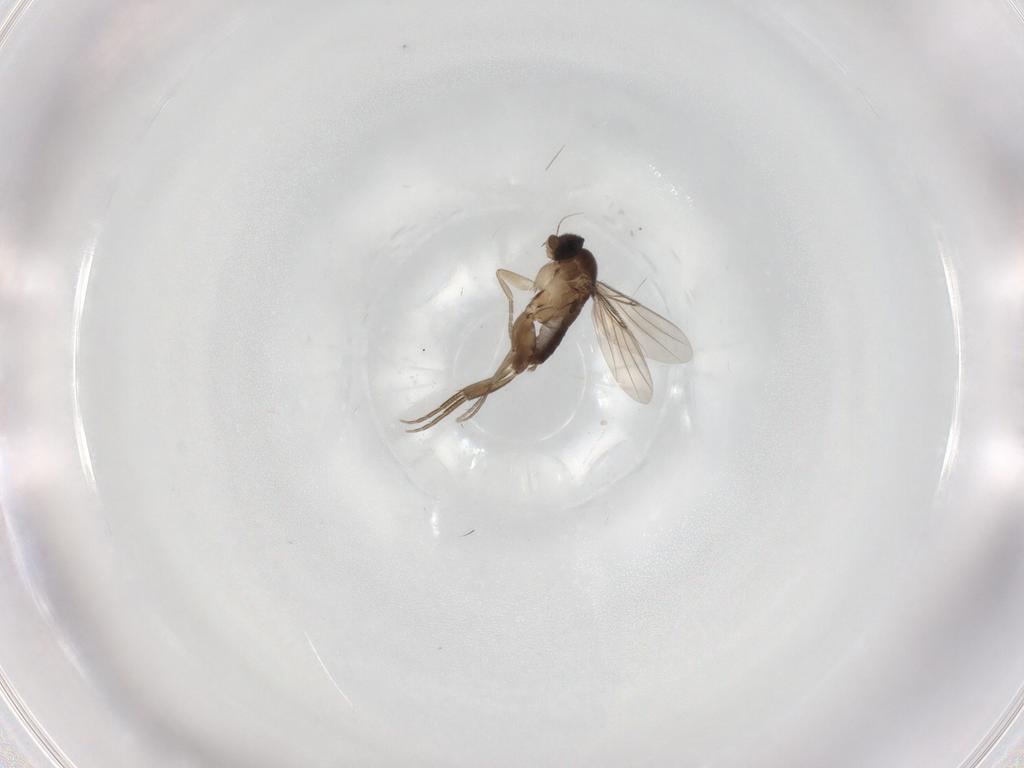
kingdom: Animalia
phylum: Arthropoda
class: Insecta
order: Diptera
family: Phoridae
